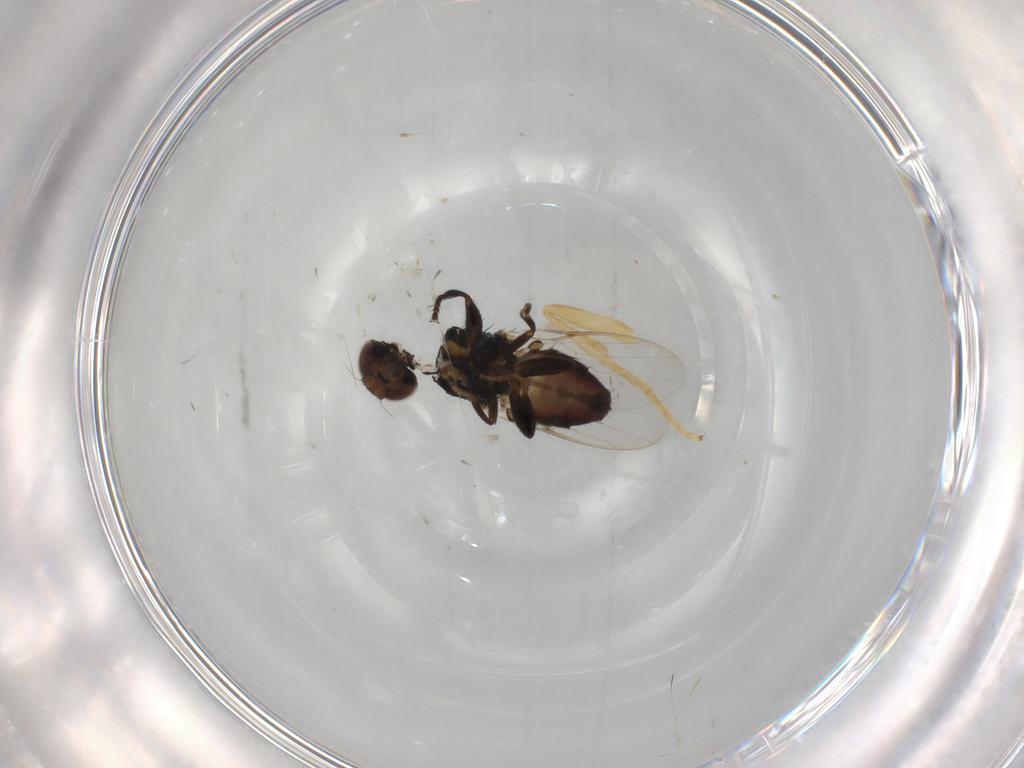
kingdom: Animalia
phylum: Arthropoda
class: Insecta
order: Diptera
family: Chloropidae
